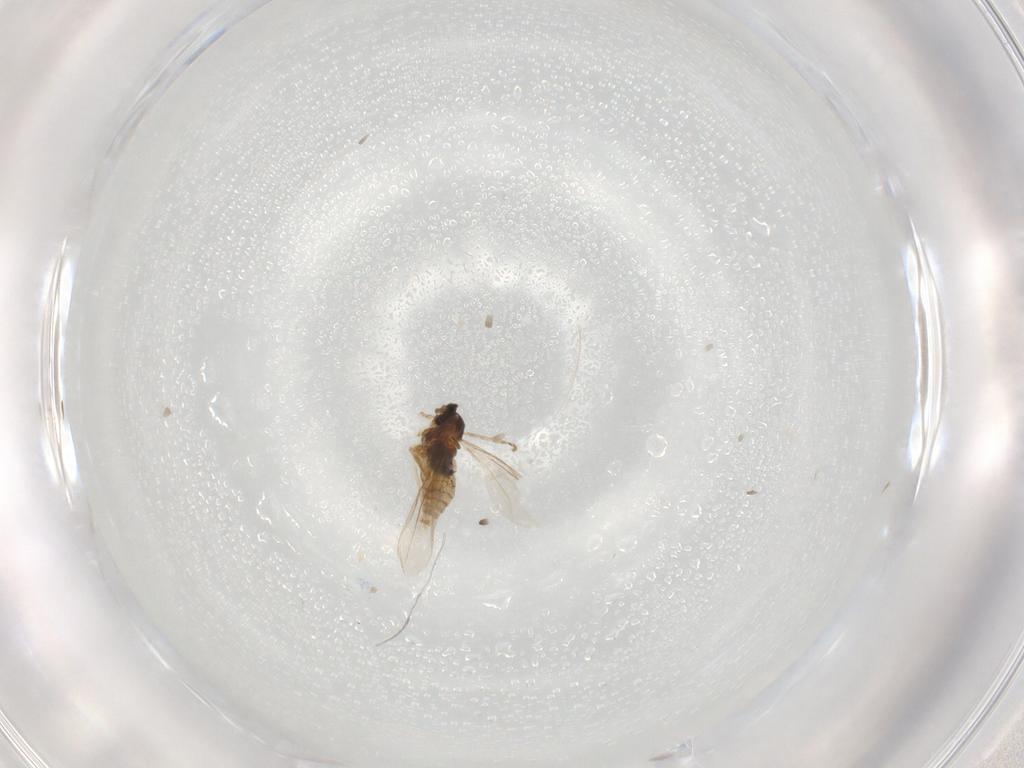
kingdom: Animalia
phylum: Arthropoda
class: Insecta
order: Diptera
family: Cecidomyiidae
